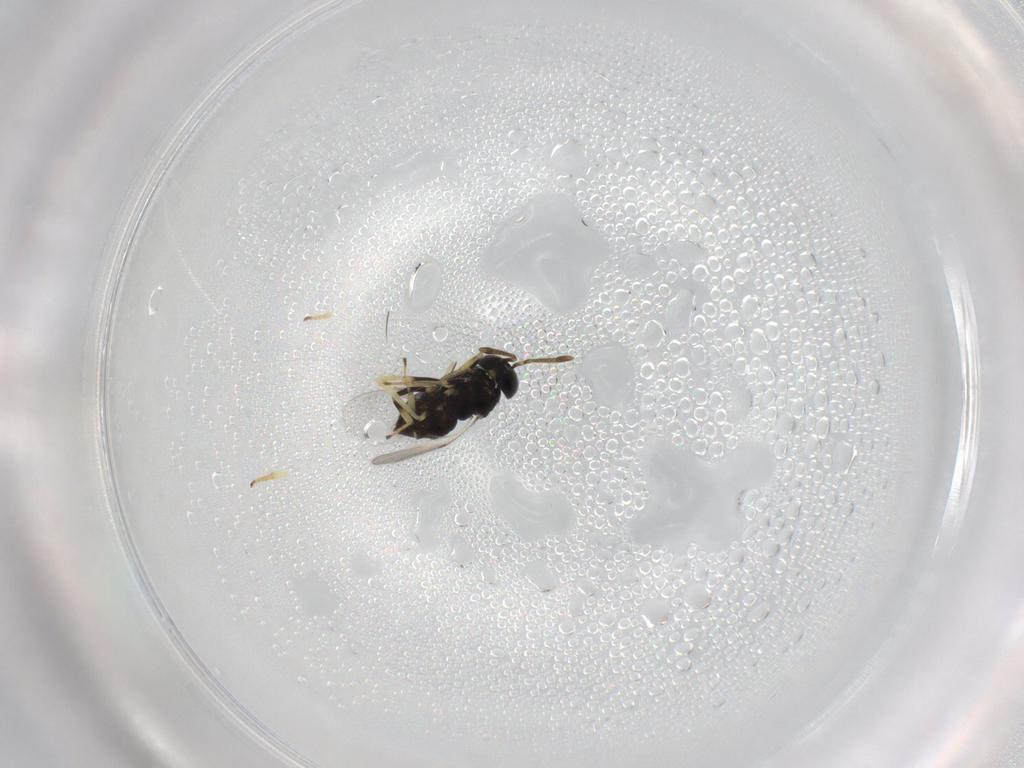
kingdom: Animalia
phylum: Arthropoda
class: Insecta
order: Hymenoptera
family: Encyrtidae
